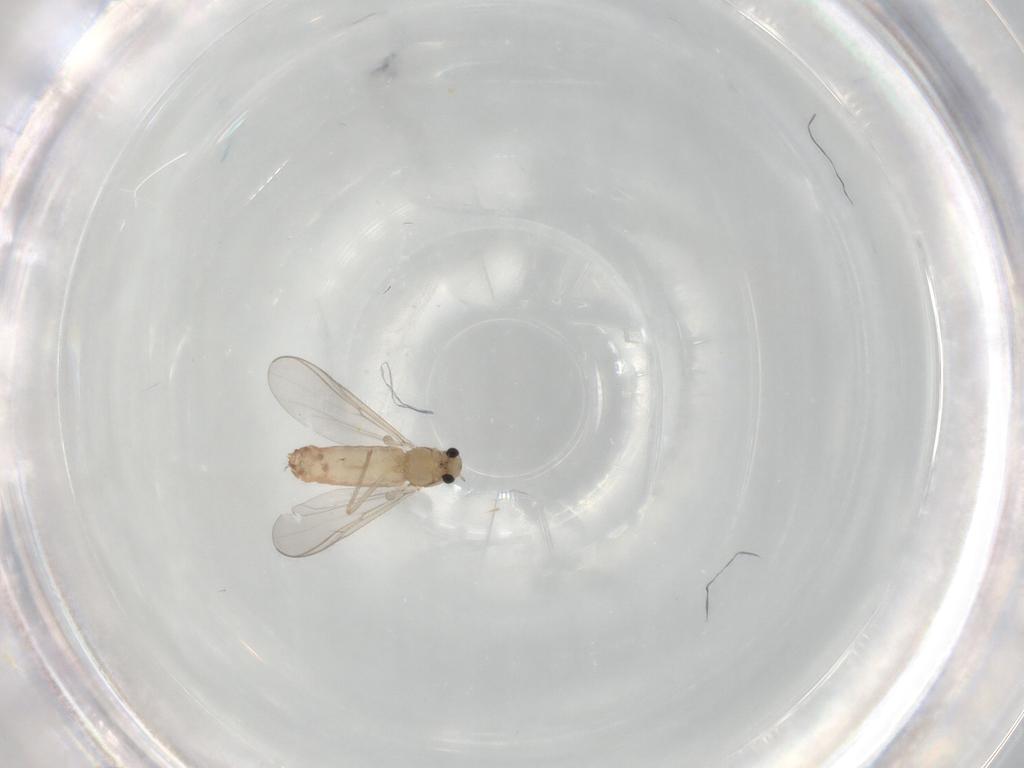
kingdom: Animalia
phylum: Arthropoda
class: Insecta
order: Diptera
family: Chironomidae
